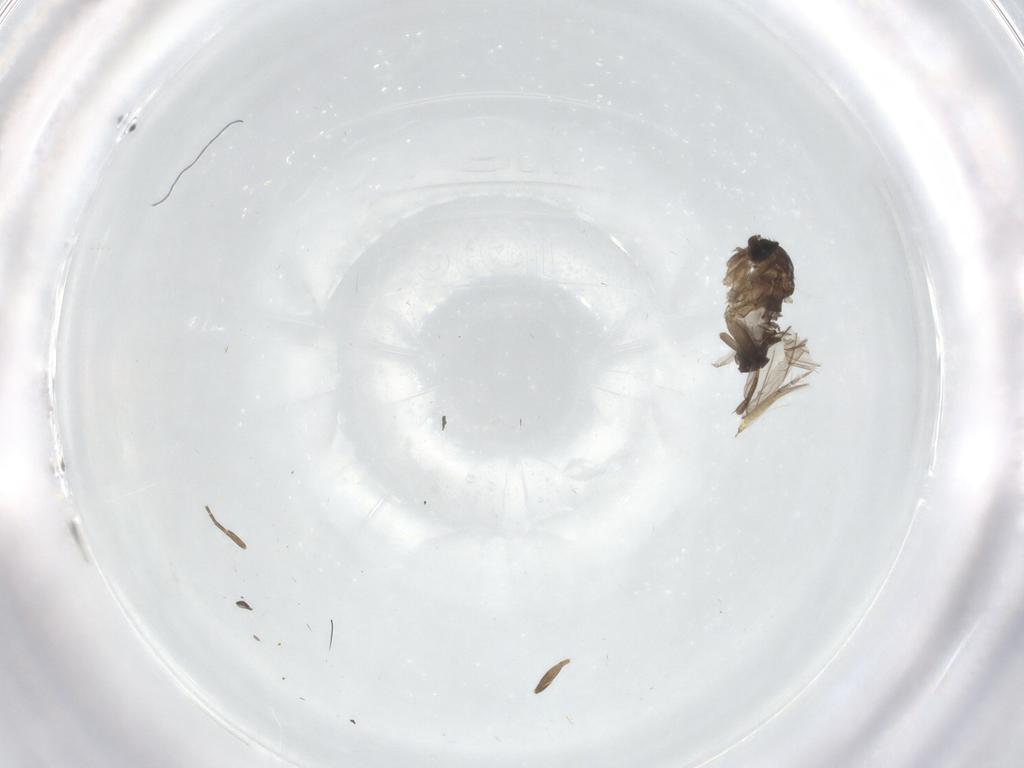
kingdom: Animalia
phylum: Arthropoda
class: Insecta
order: Diptera
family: Ceratopogonidae
